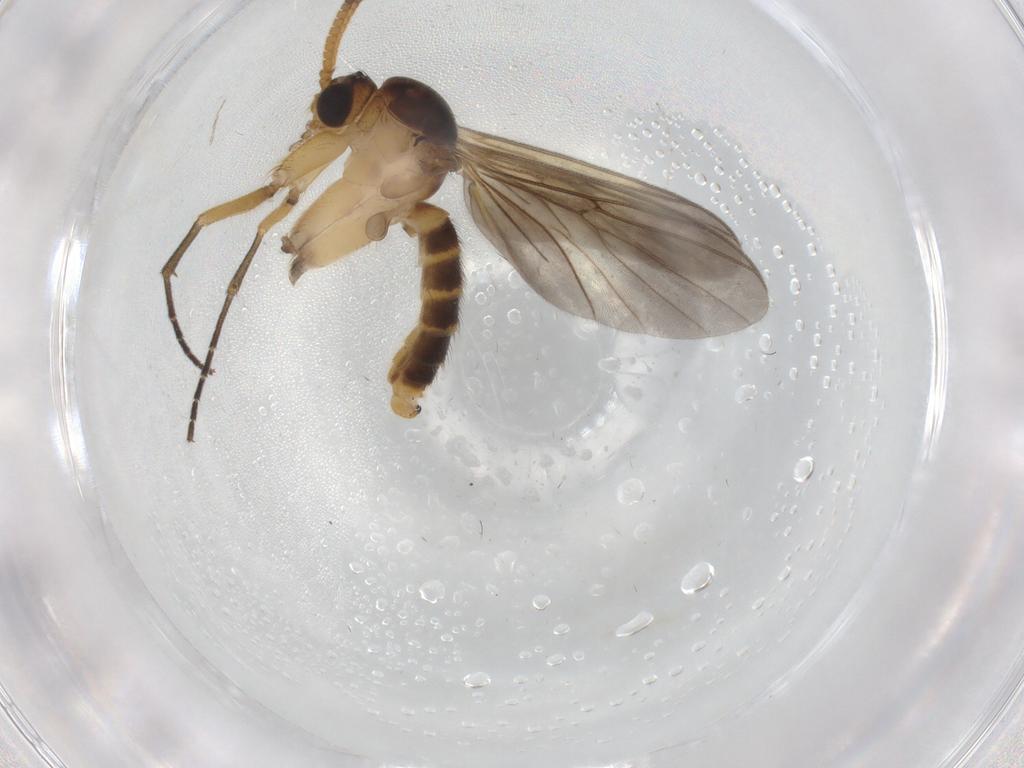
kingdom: Animalia
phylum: Arthropoda
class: Insecta
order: Diptera
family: Chironomidae
